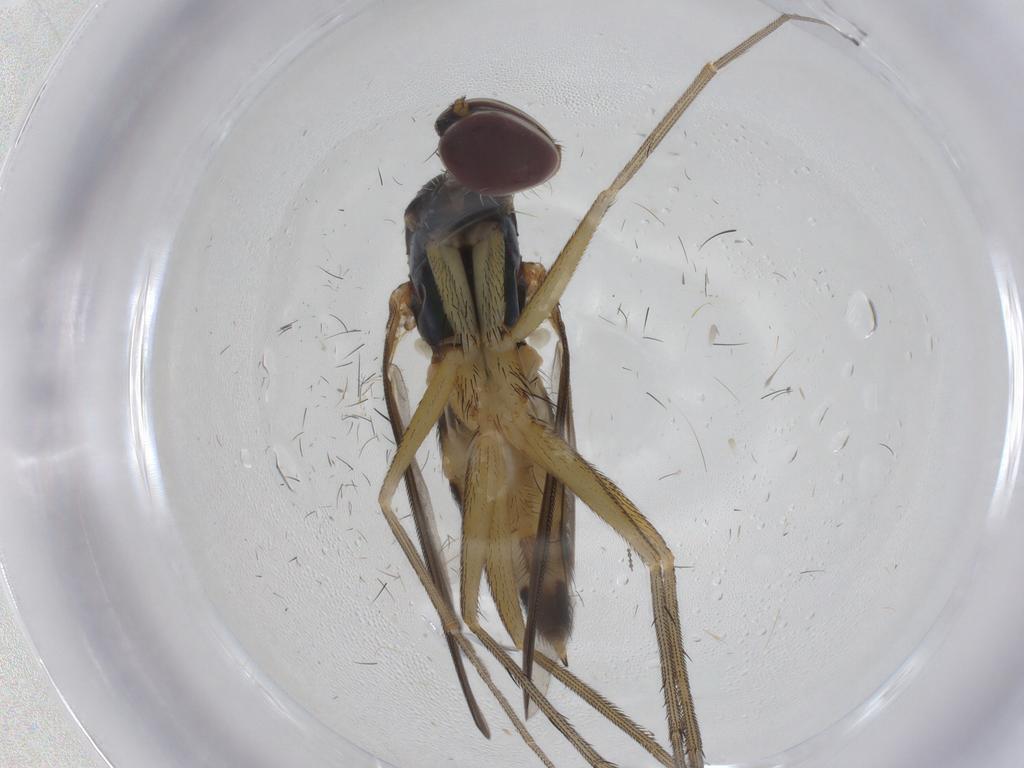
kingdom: Animalia
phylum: Arthropoda
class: Insecta
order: Diptera
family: Dolichopodidae
